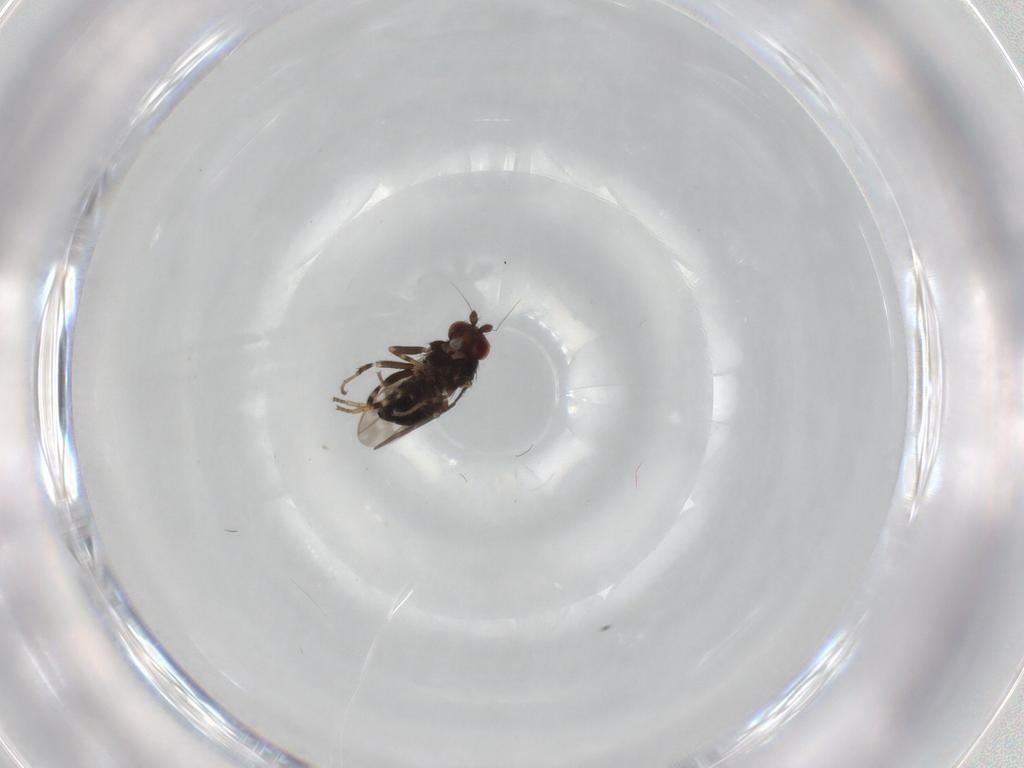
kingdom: Animalia
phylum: Arthropoda
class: Insecta
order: Diptera
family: Sphaeroceridae
